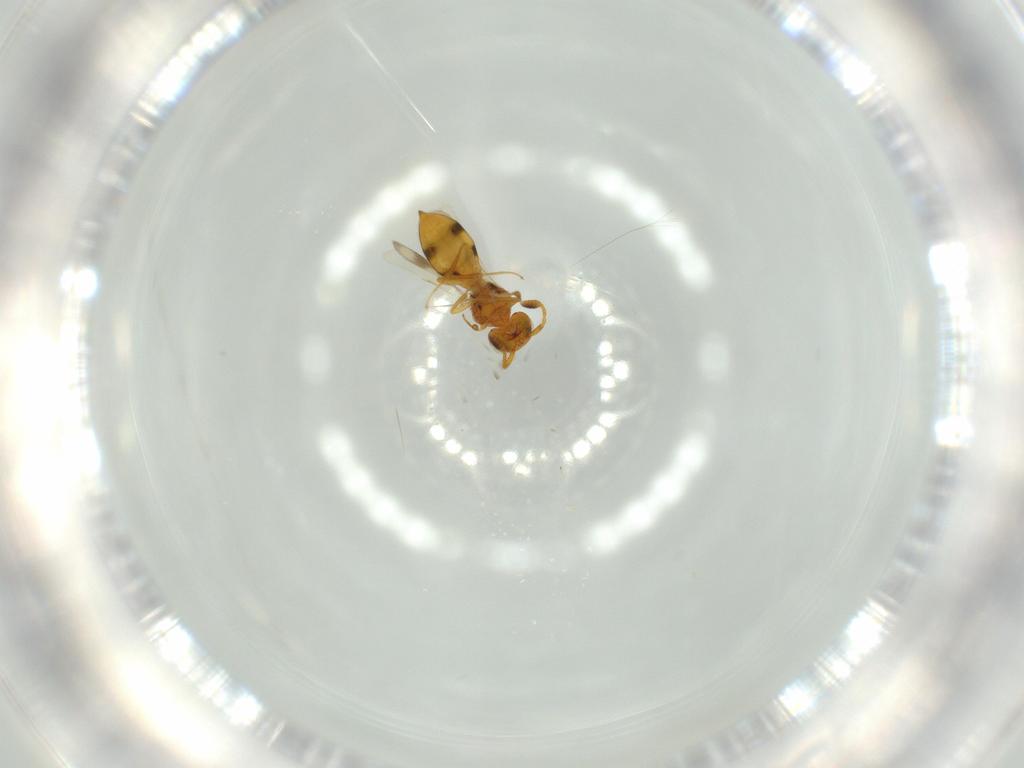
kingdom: Animalia
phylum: Arthropoda
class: Insecta
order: Hymenoptera
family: Scelionidae
